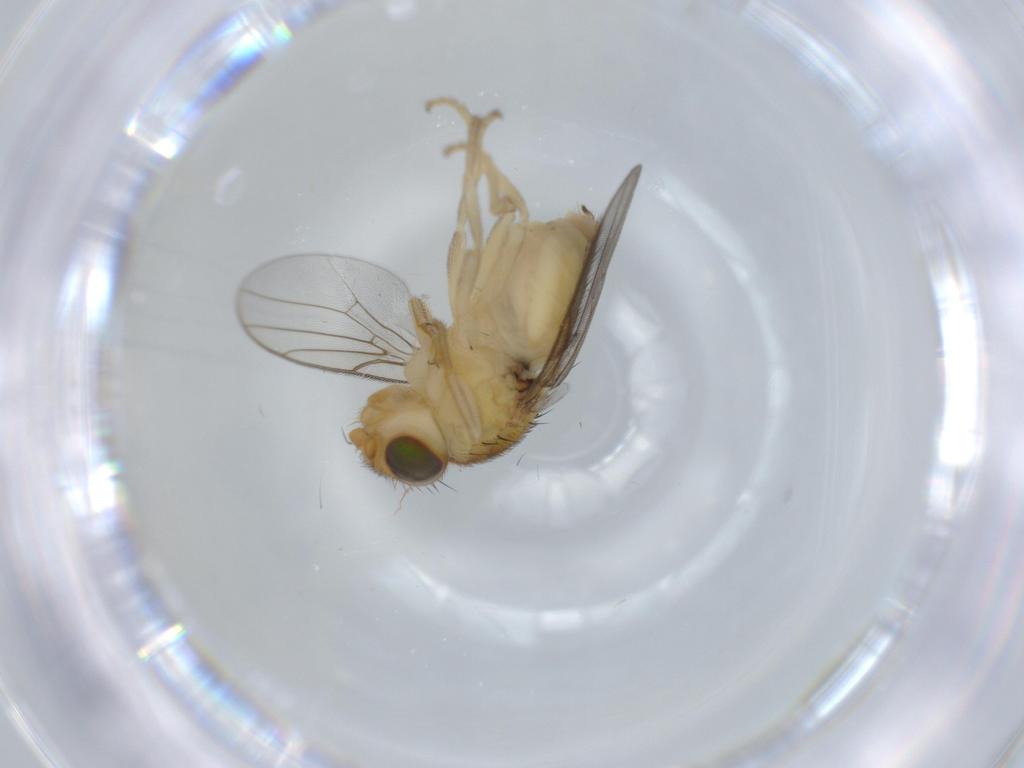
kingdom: Animalia
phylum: Arthropoda
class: Insecta
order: Diptera
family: Chloropidae
